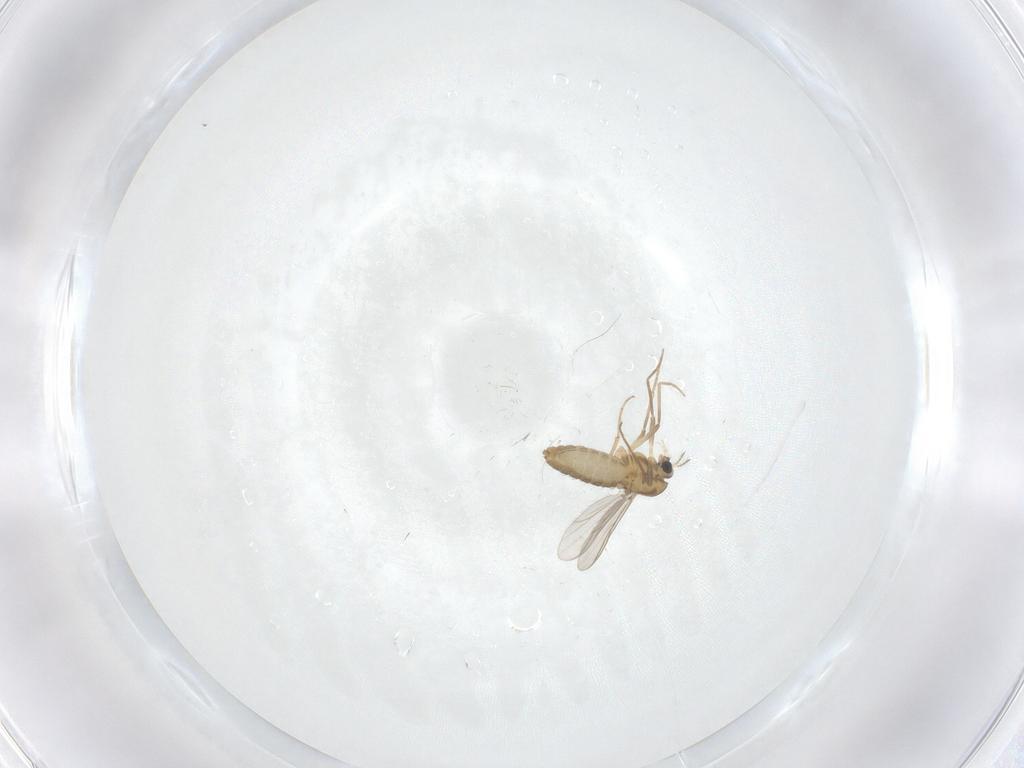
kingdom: Animalia
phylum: Arthropoda
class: Insecta
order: Diptera
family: Chironomidae
